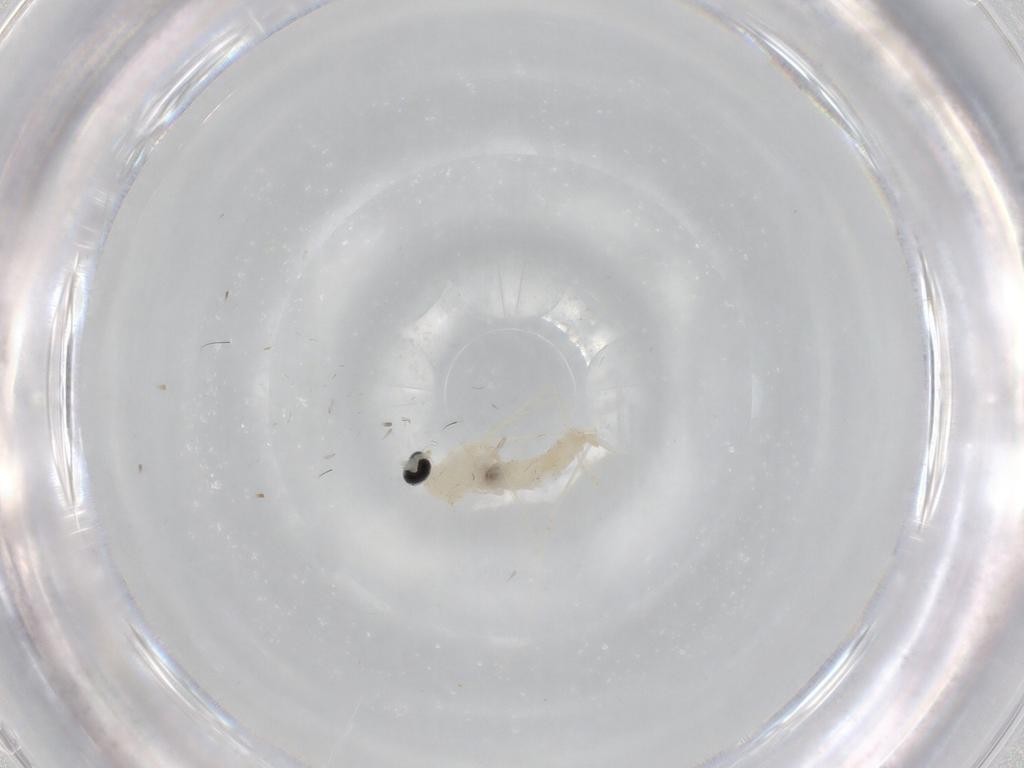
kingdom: Animalia
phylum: Arthropoda
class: Insecta
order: Diptera
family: Cecidomyiidae
